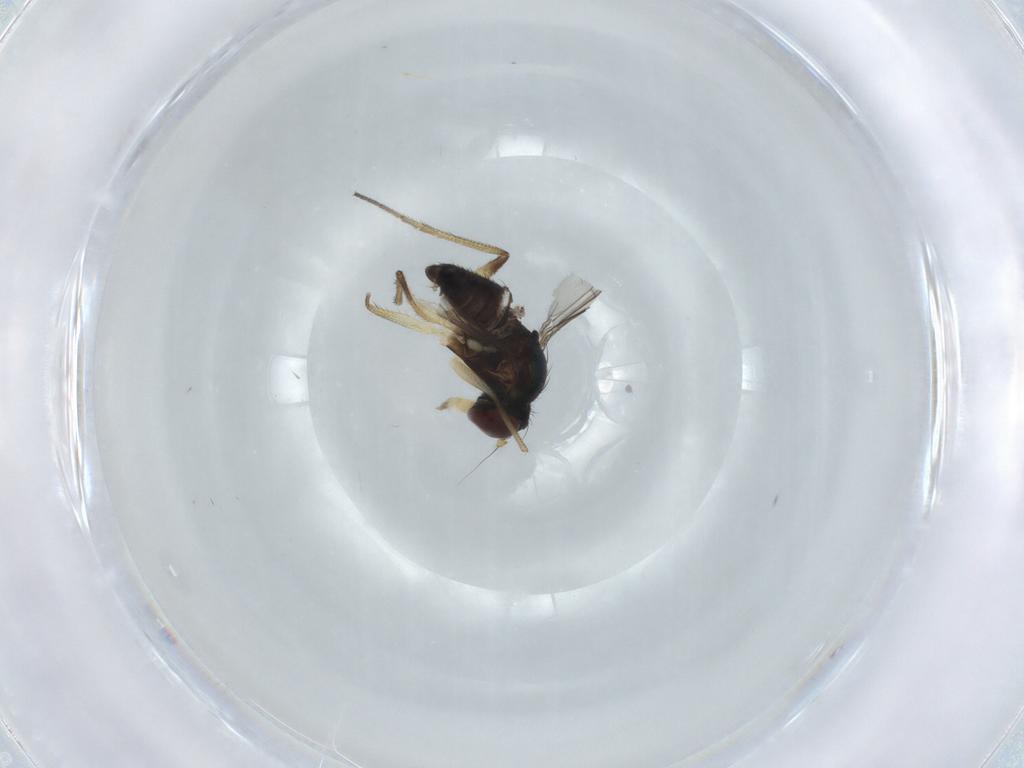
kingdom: Animalia
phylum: Arthropoda
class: Insecta
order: Diptera
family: Dolichopodidae
